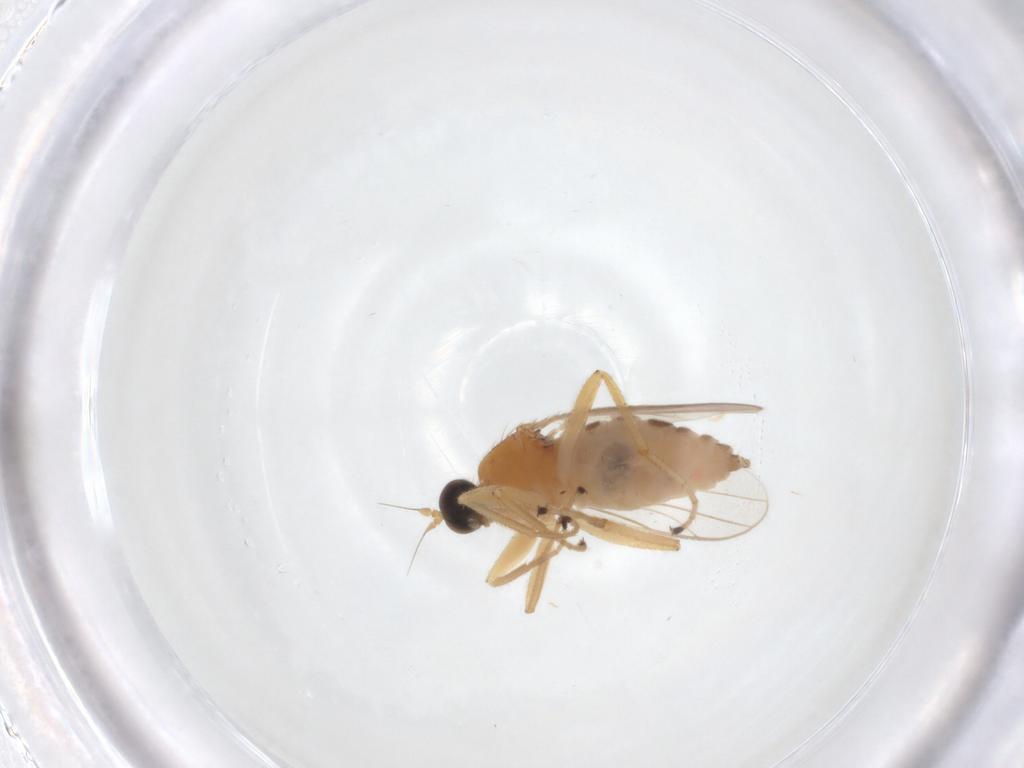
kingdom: Animalia
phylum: Arthropoda
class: Insecta
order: Diptera
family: Hybotidae
